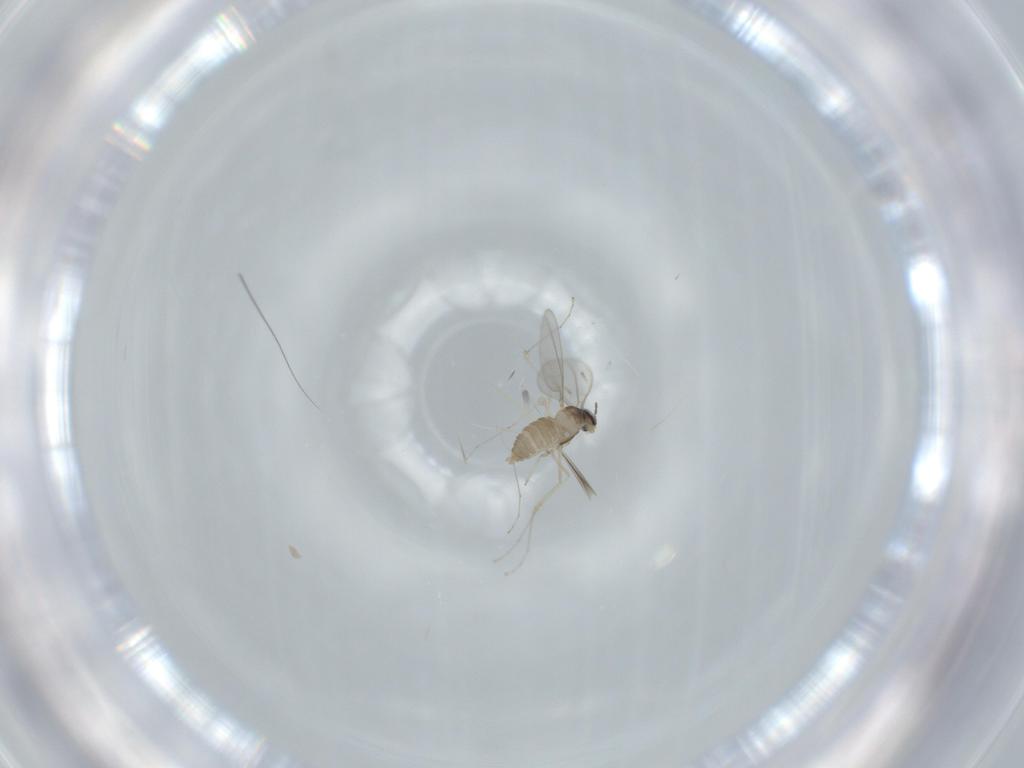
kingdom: Animalia
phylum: Arthropoda
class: Insecta
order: Diptera
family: Cecidomyiidae
